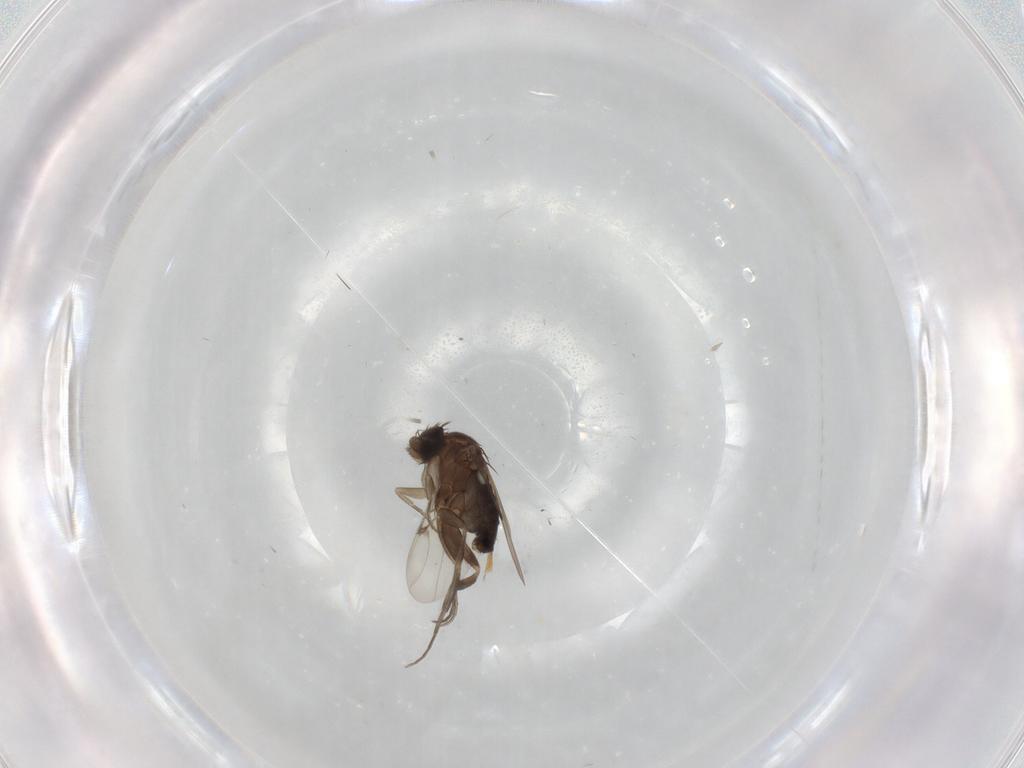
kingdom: Animalia
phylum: Arthropoda
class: Insecta
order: Diptera
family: Phoridae
